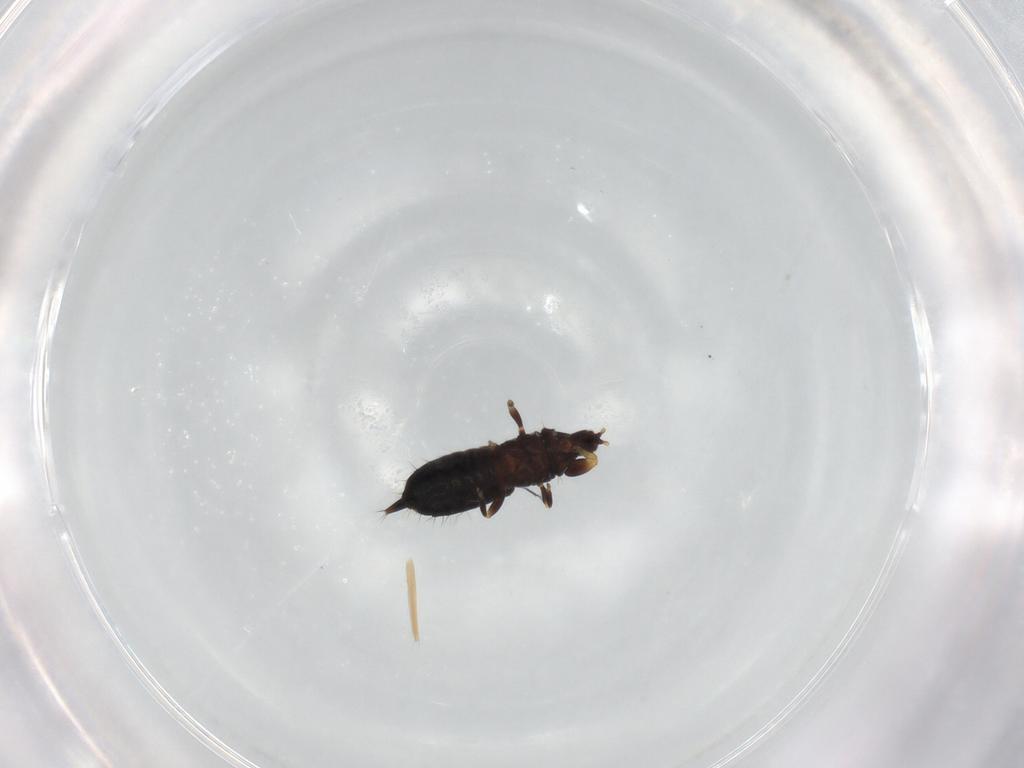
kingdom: Animalia
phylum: Arthropoda
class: Insecta
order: Thysanoptera
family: Phlaeothripidae
